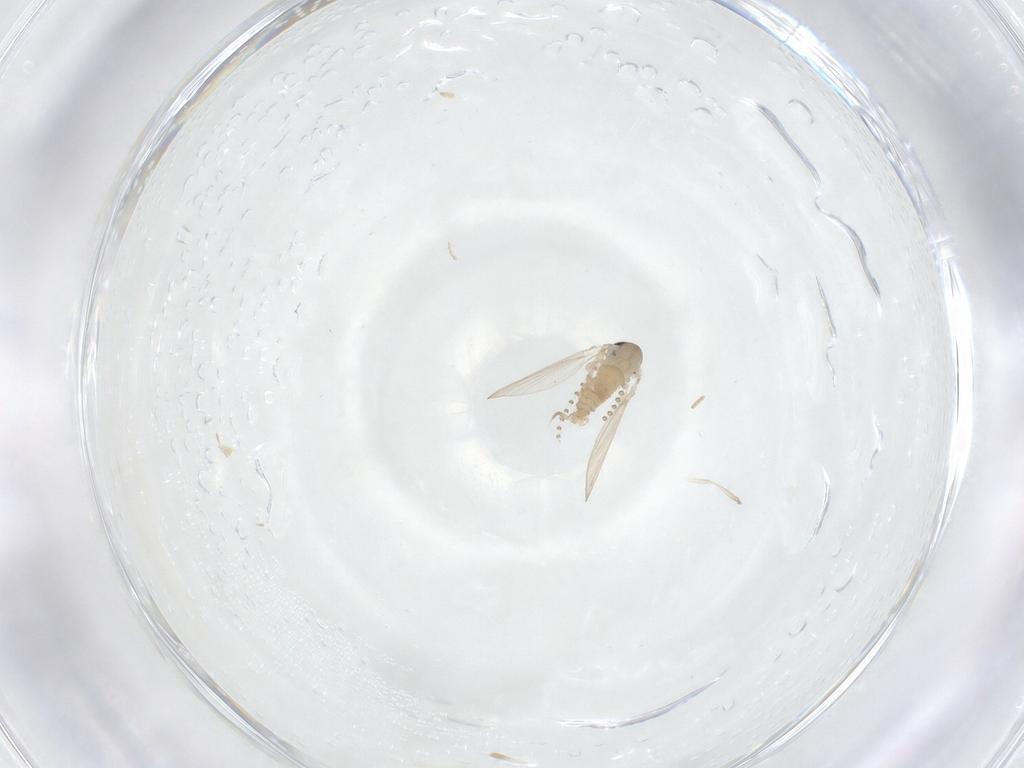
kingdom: Animalia
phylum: Arthropoda
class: Insecta
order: Diptera
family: Psychodidae
